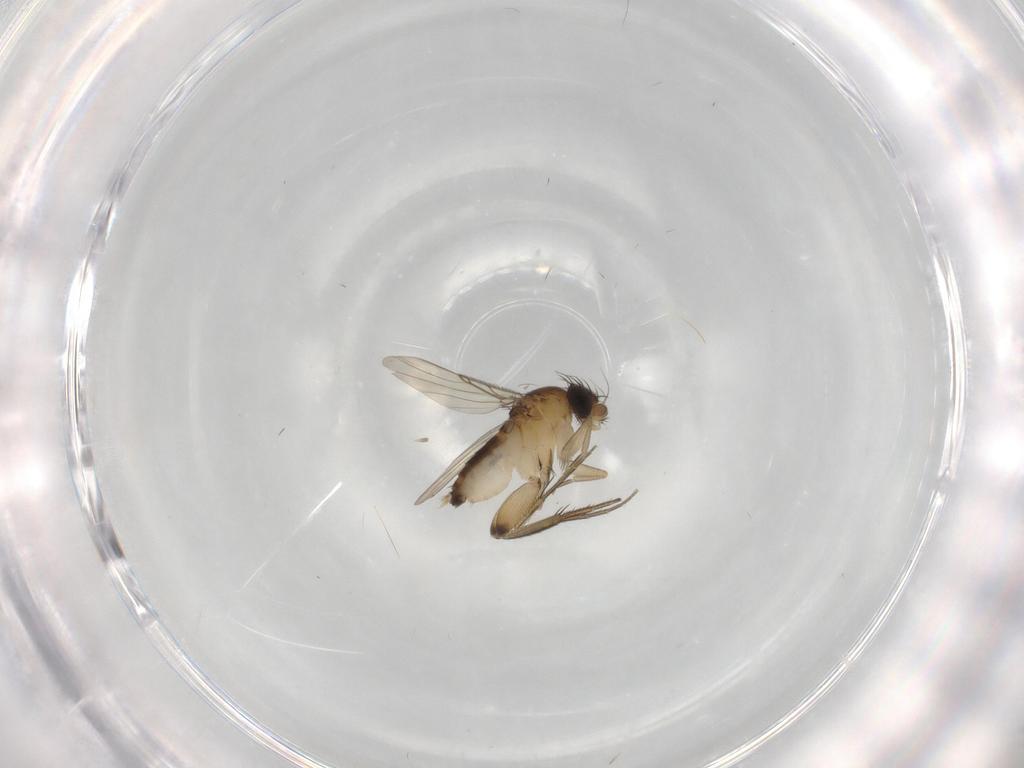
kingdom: Animalia
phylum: Arthropoda
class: Insecta
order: Diptera
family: Phoridae
